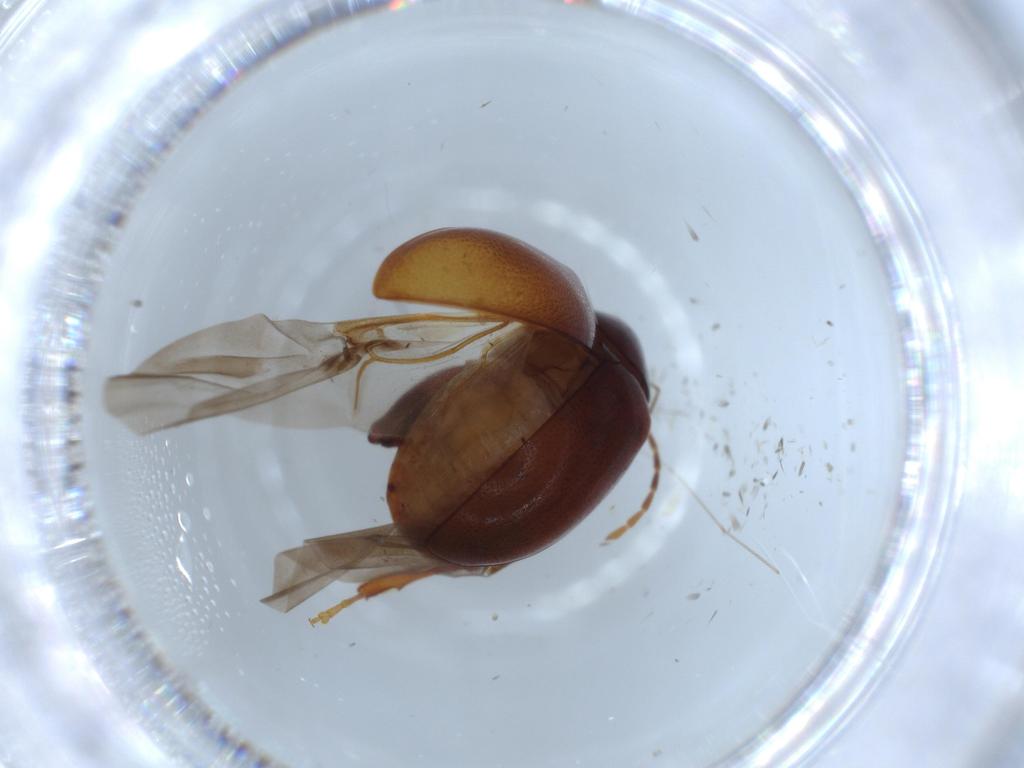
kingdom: Animalia
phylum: Arthropoda
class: Insecta
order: Coleoptera
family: Chrysomelidae
